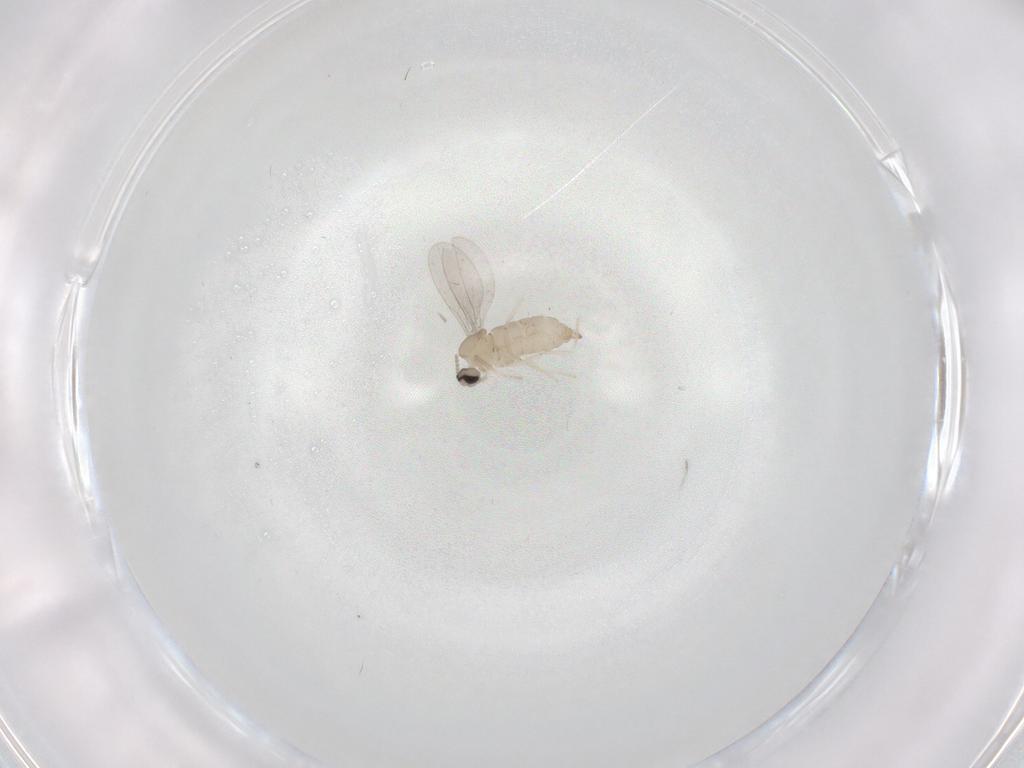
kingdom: Animalia
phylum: Arthropoda
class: Insecta
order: Diptera
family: Cecidomyiidae
